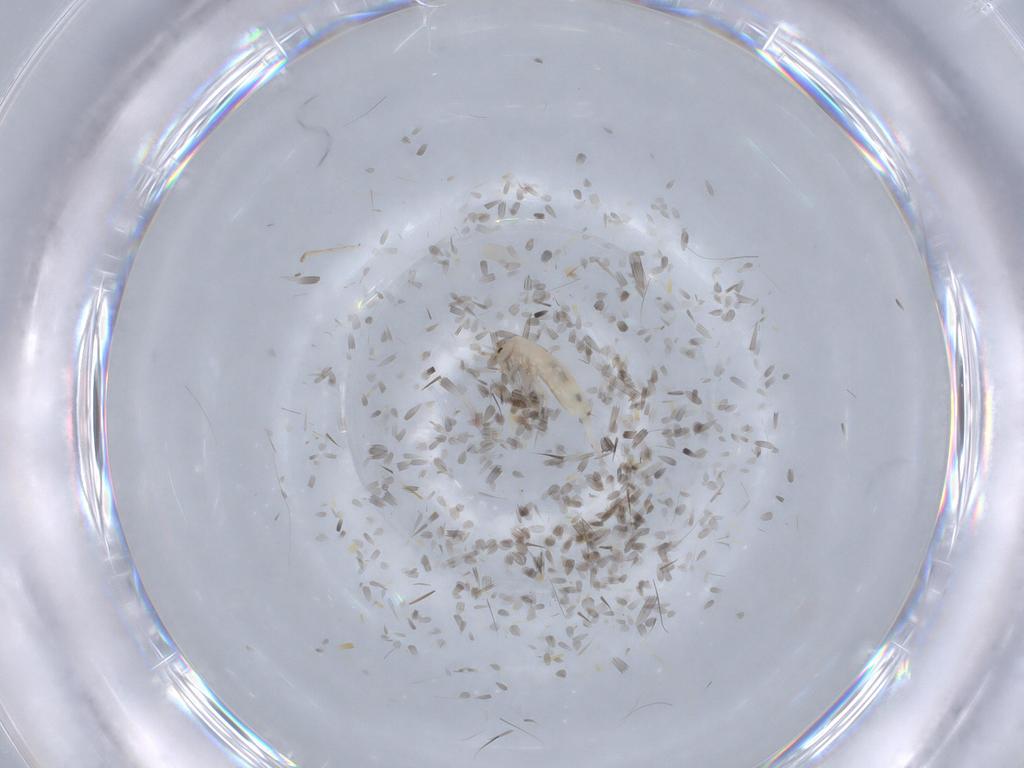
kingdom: Animalia
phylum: Arthropoda
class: Collembola
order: Entomobryomorpha
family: Entomobryidae
